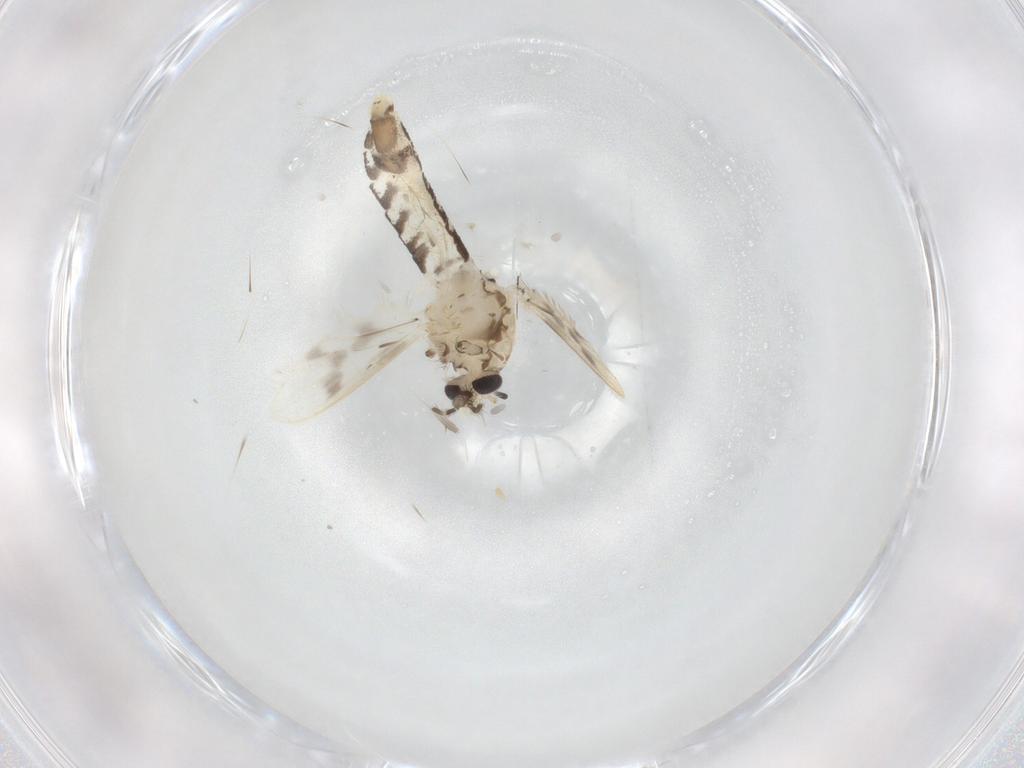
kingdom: Animalia
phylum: Arthropoda
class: Insecta
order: Diptera
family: Corethrellidae
